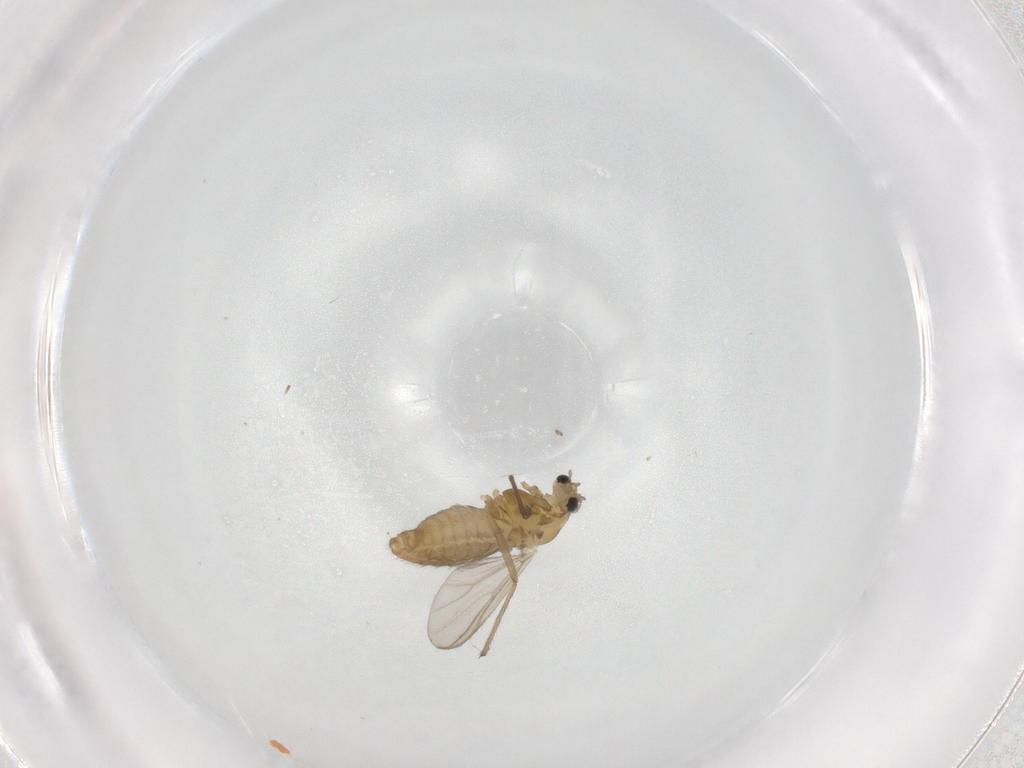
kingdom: Animalia
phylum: Arthropoda
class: Insecta
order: Diptera
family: Chironomidae
